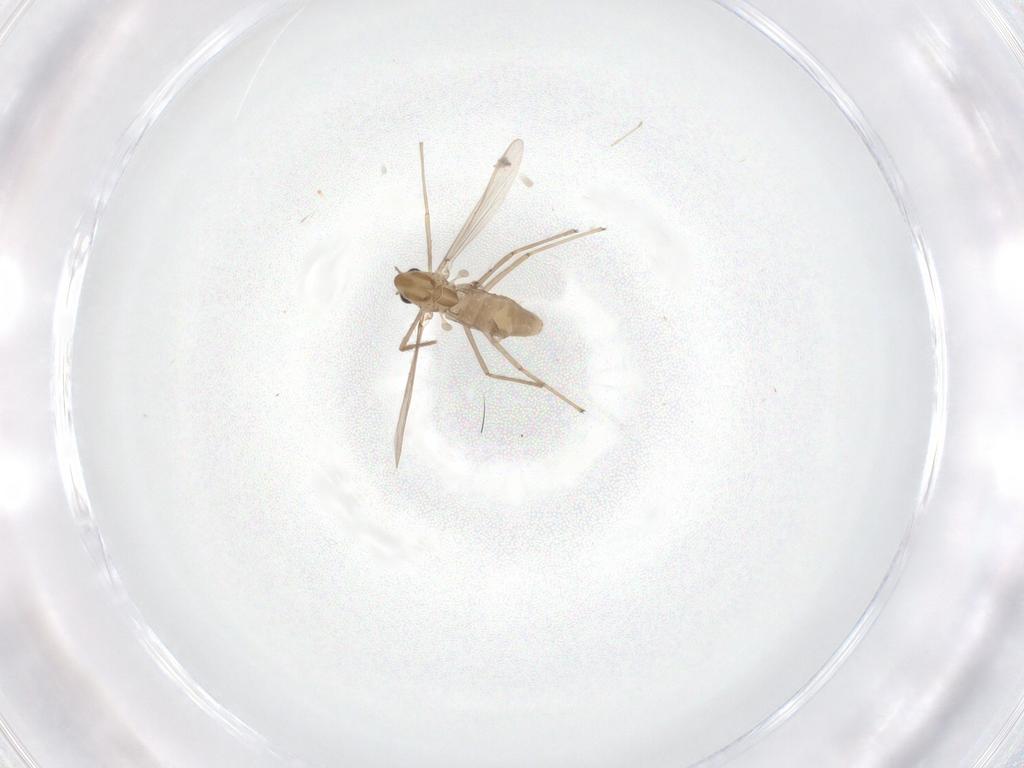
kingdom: Animalia
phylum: Arthropoda
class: Insecta
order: Diptera
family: Chironomidae
